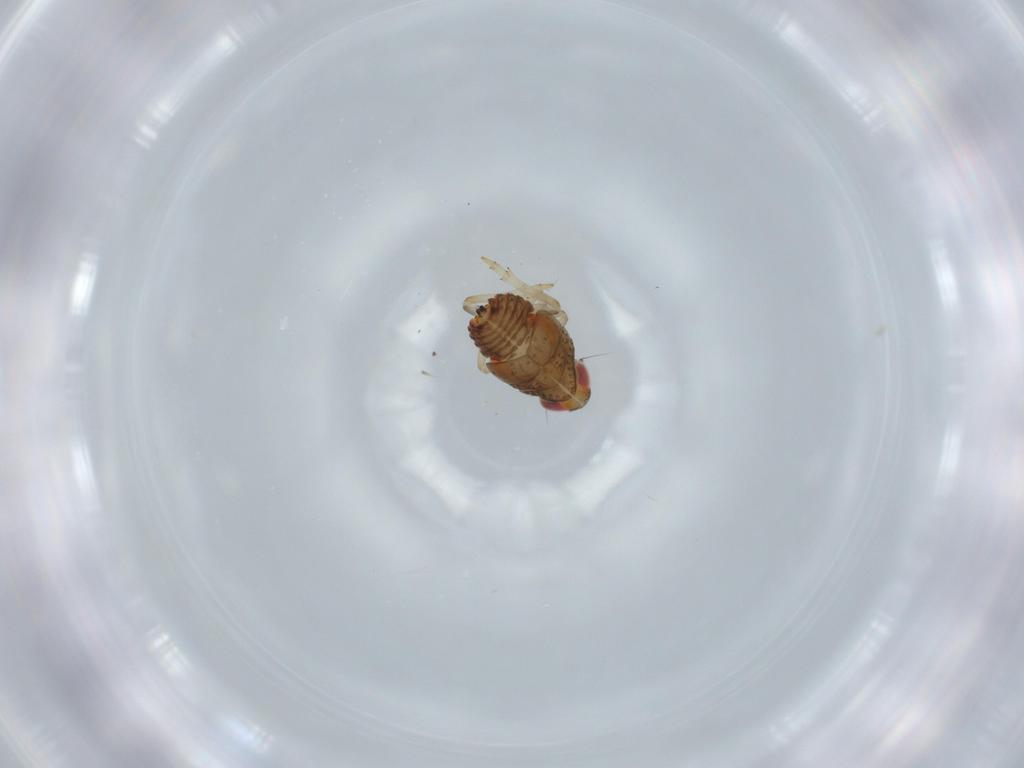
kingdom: Animalia
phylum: Arthropoda
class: Insecta
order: Hemiptera
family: Issidae
